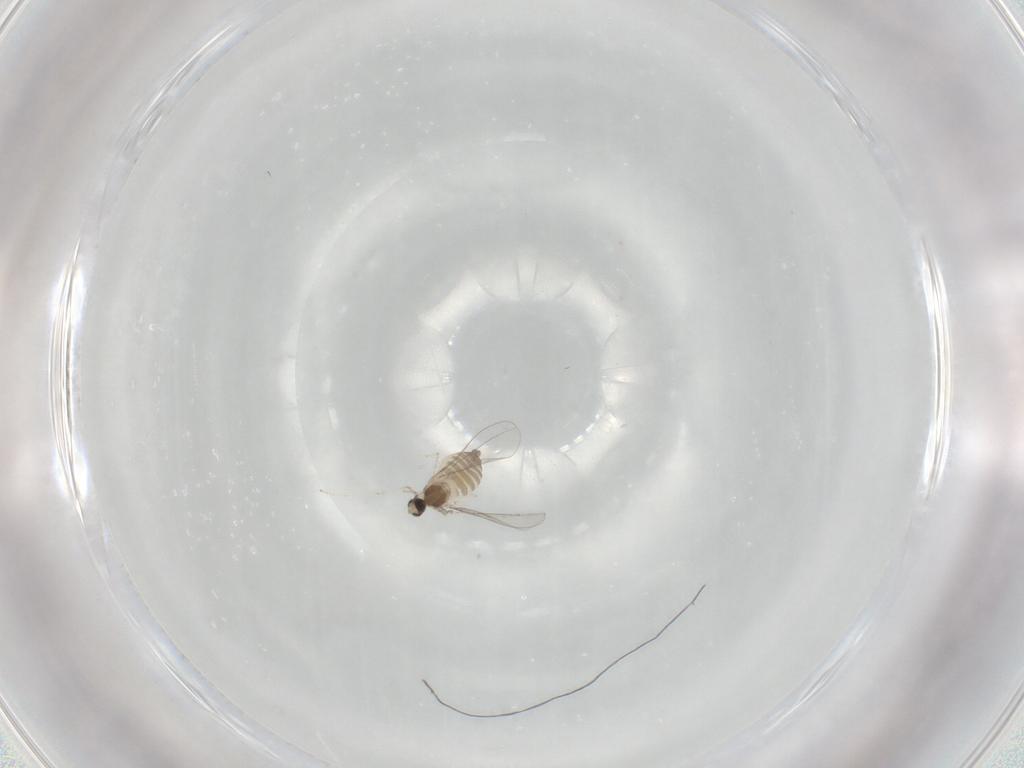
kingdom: Animalia
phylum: Arthropoda
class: Insecta
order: Diptera
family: Cecidomyiidae
